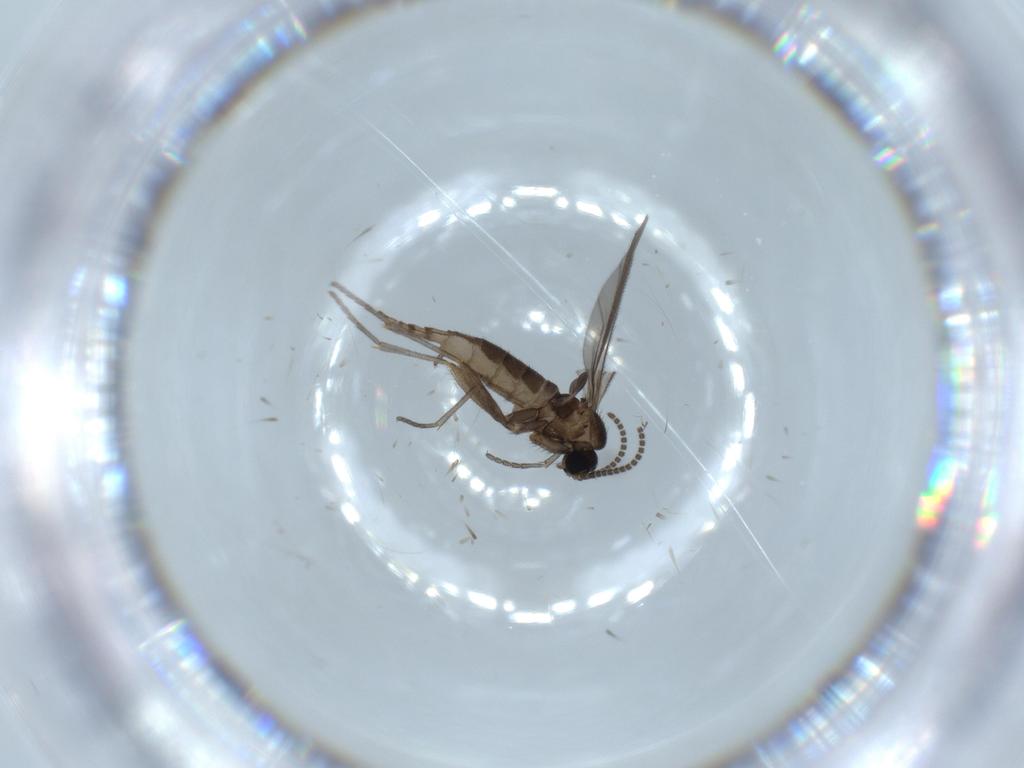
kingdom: Animalia
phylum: Arthropoda
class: Insecta
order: Diptera
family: Sciaridae
